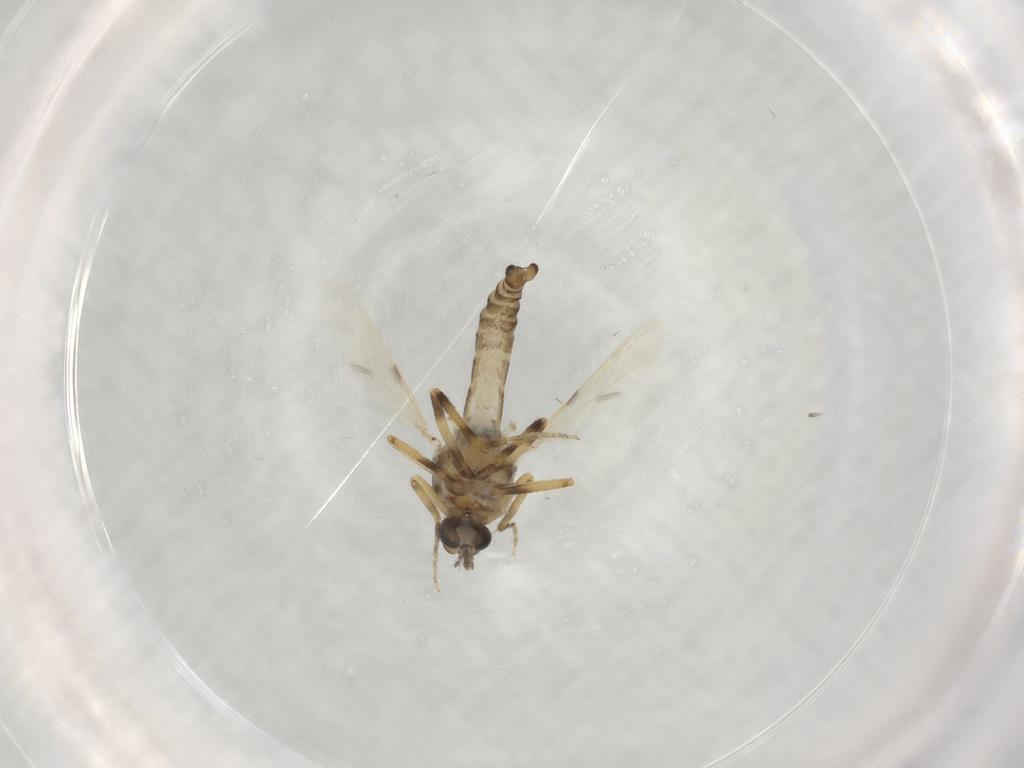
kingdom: Animalia
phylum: Arthropoda
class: Insecta
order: Diptera
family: Ceratopogonidae
